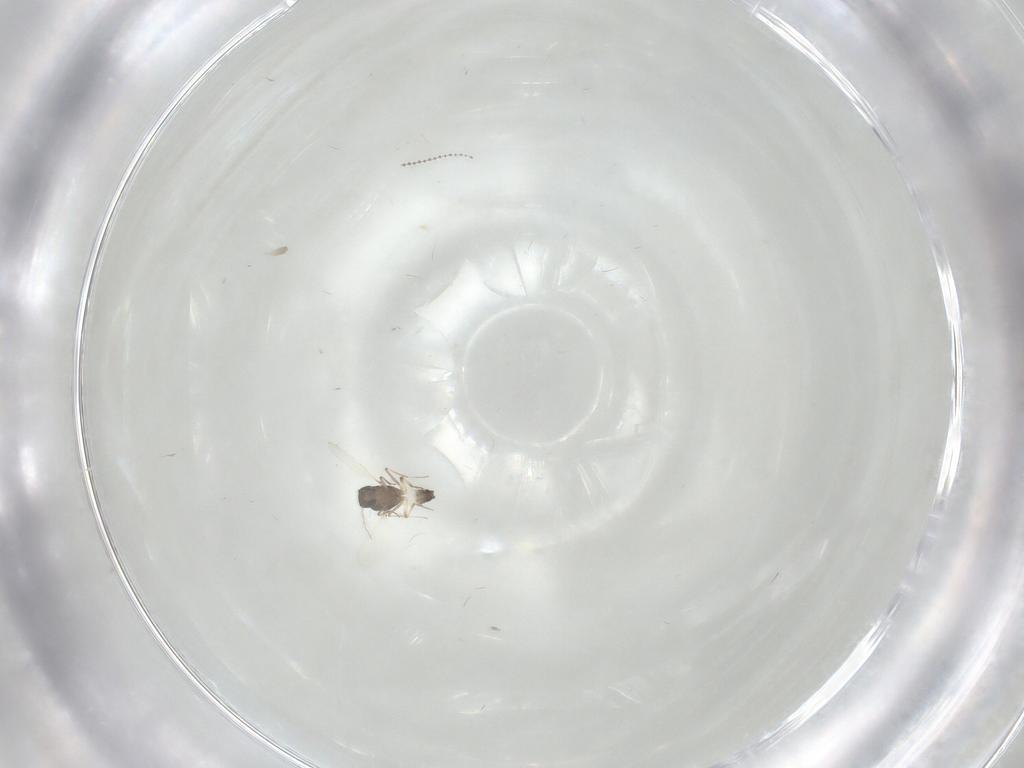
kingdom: Animalia
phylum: Arthropoda
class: Insecta
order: Diptera
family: Ceratopogonidae
